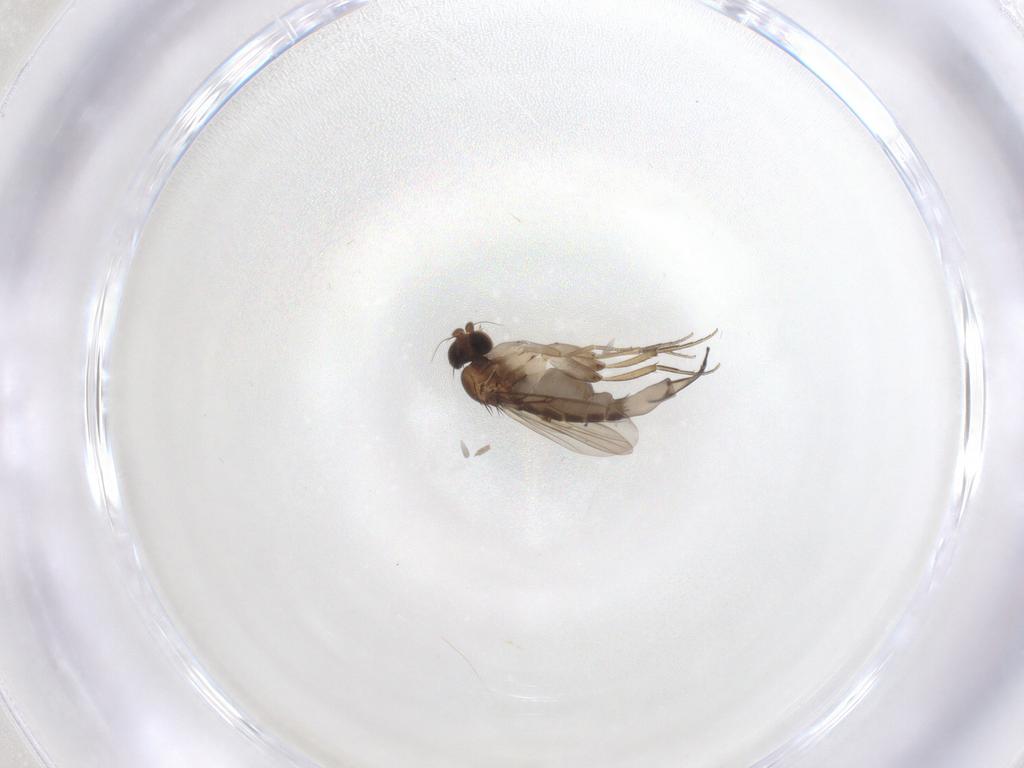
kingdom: Animalia
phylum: Arthropoda
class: Insecta
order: Diptera
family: Phoridae
